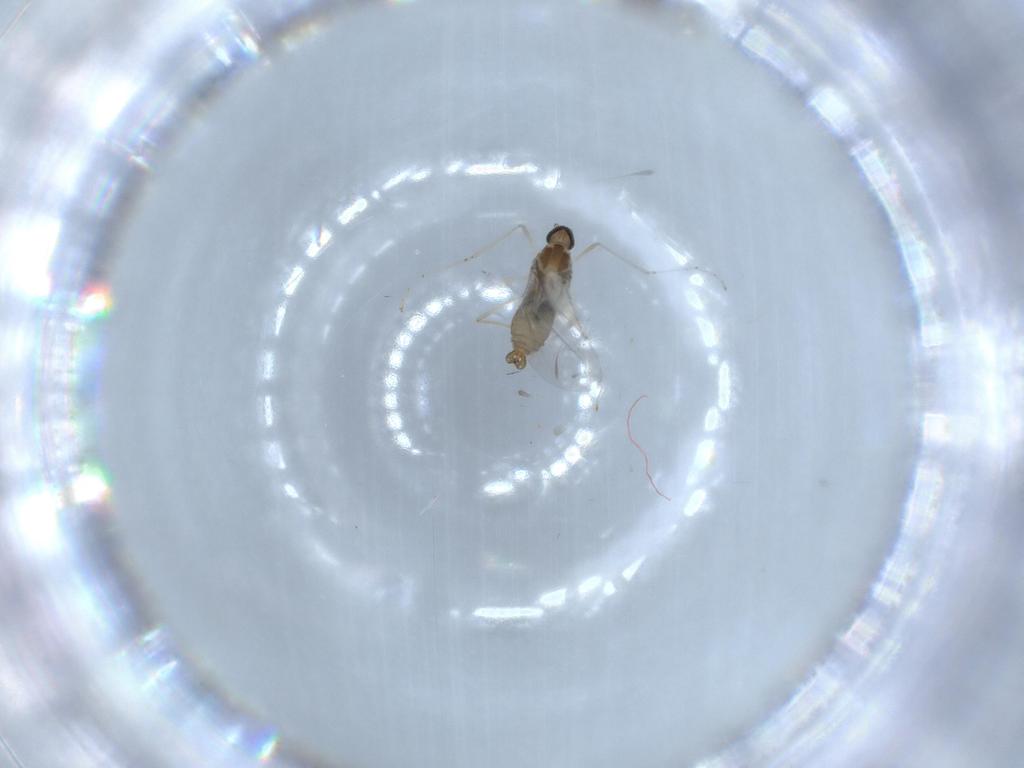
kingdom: Animalia
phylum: Arthropoda
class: Insecta
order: Diptera
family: Cecidomyiidae
